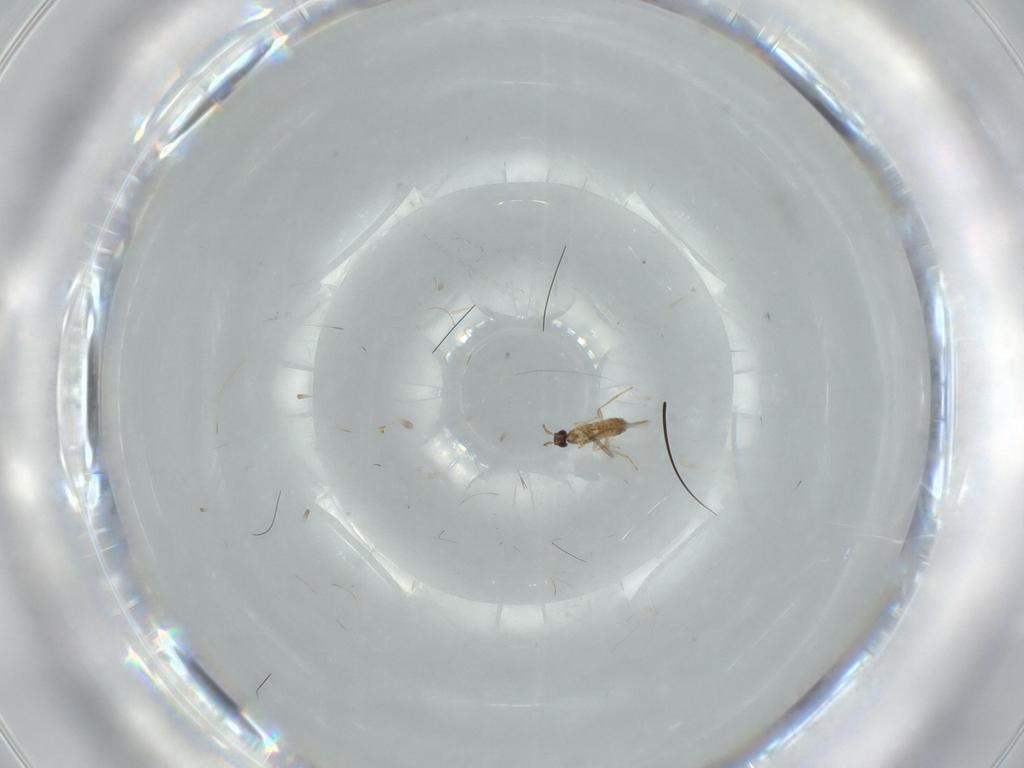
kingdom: Animalia
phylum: Arthropoda
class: Insecta
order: Hymenoptera
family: Mymaridae
